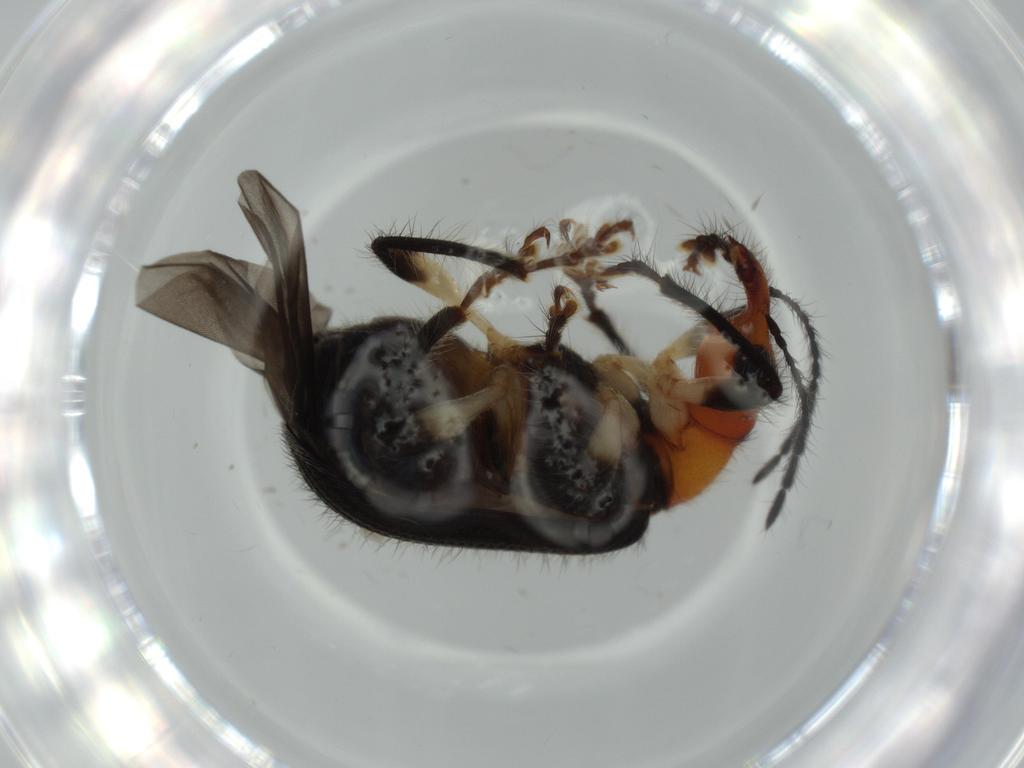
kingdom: Animalia
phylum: Arthropoda
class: Insecta
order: Coleoptera
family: Attelabidae
